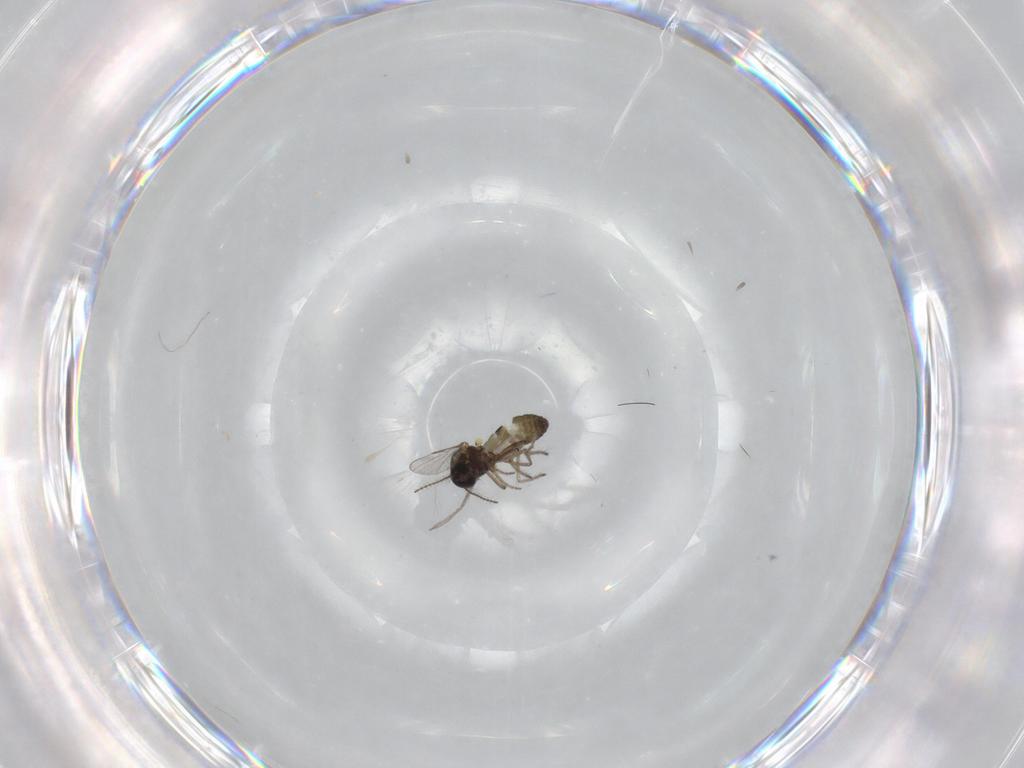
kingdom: Animalia
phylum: Arthropoda
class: Insecta
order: Diptera
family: Ceratopogonidae
